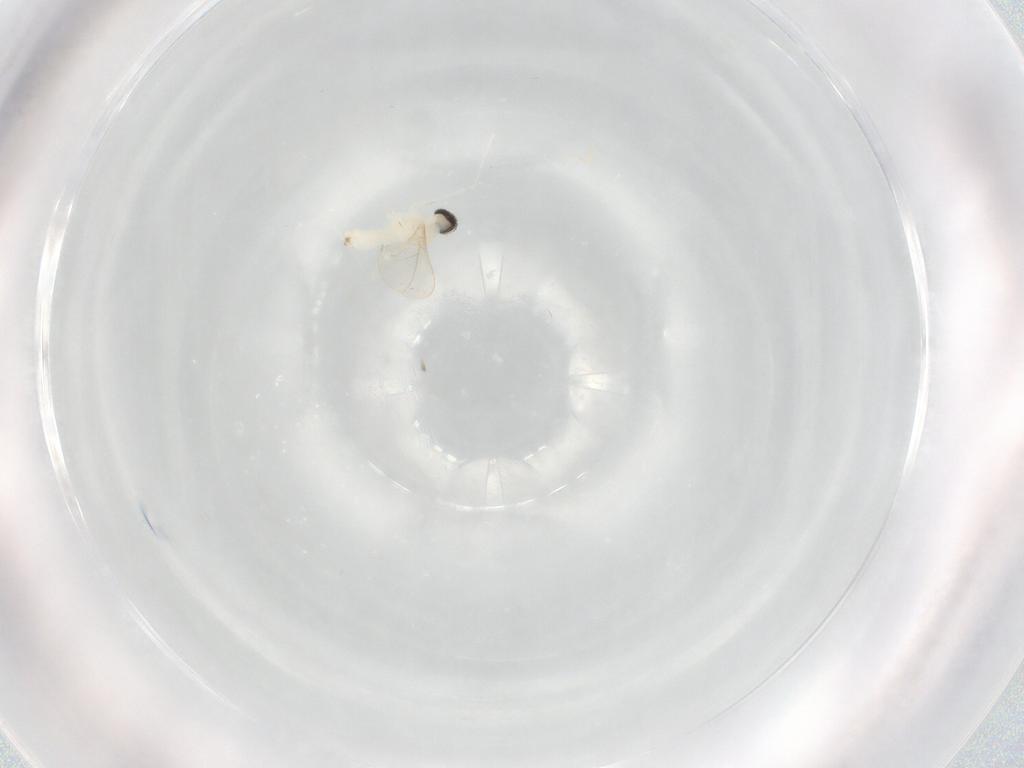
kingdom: Animalia
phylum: Arthropoda
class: Insecta
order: Diptera
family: Cecidomyiidae
